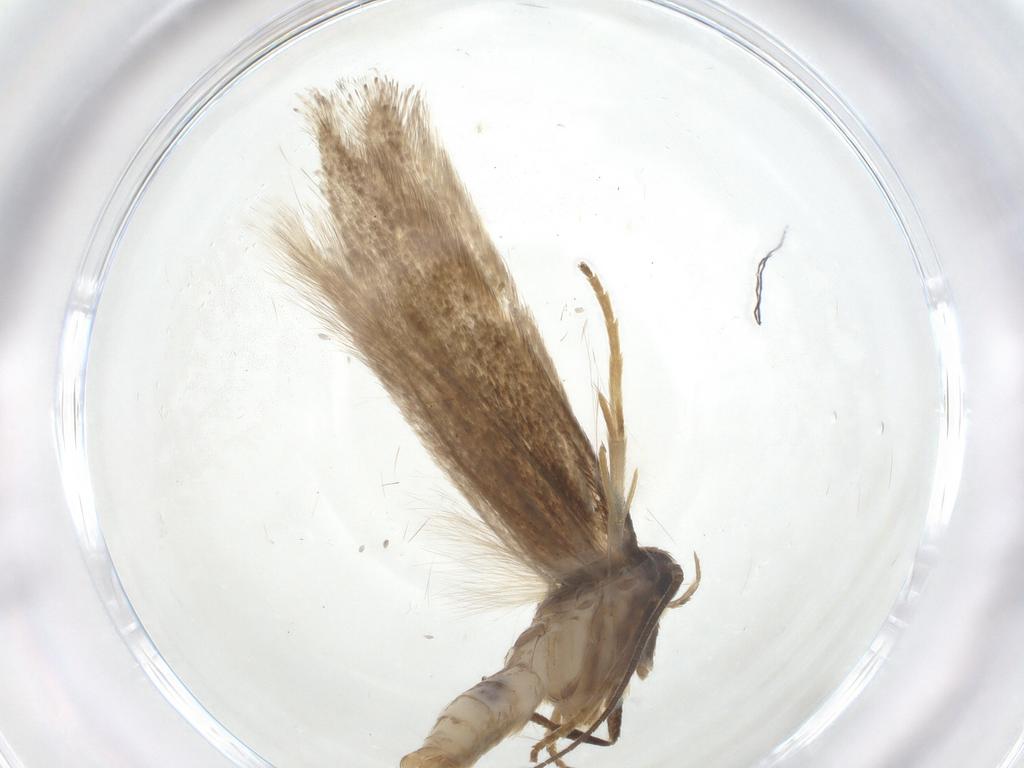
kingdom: Animalia
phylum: Arthropoda
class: Insecta
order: Lepidoptera
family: Elachistidae
